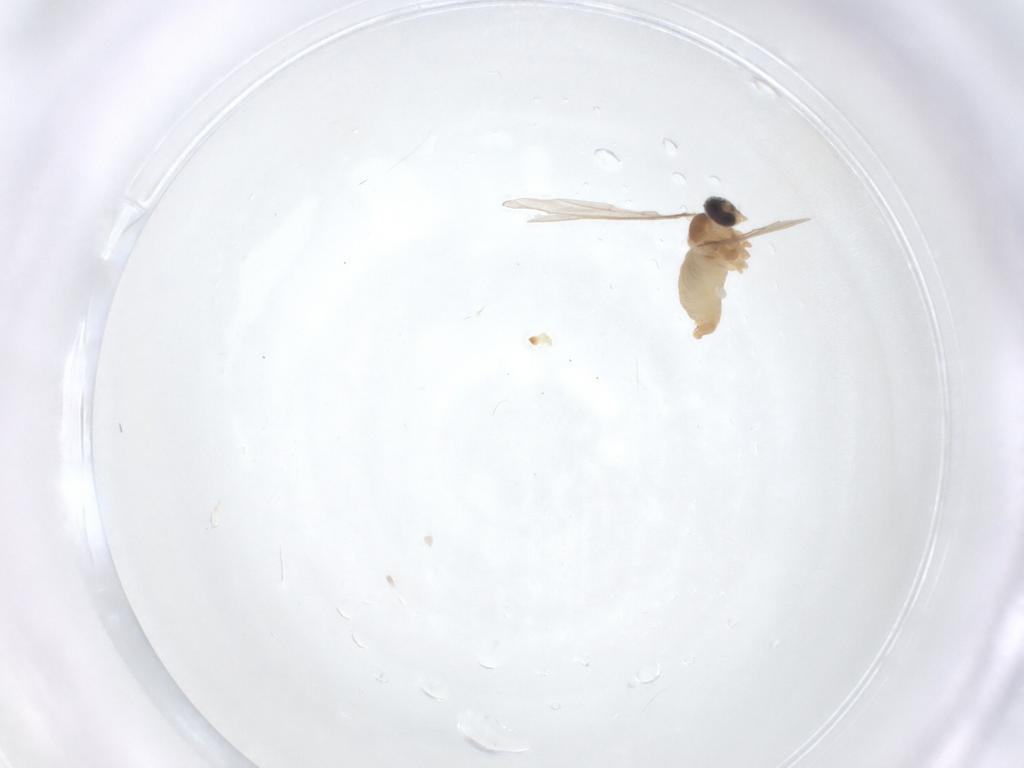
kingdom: Animalia
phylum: Arthropoda
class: Insecta
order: Diptera
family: Cecidomyiidae
